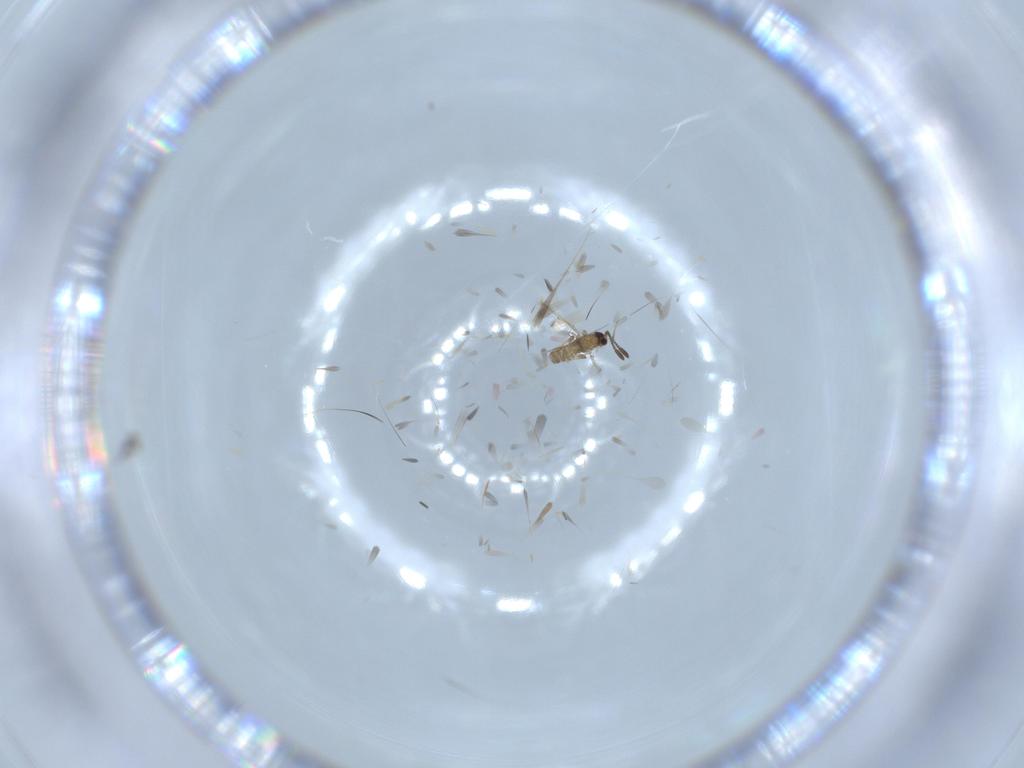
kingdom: Animalia
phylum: Arthropoda
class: Insecta
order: Hymenoptera
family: Mymaridae
